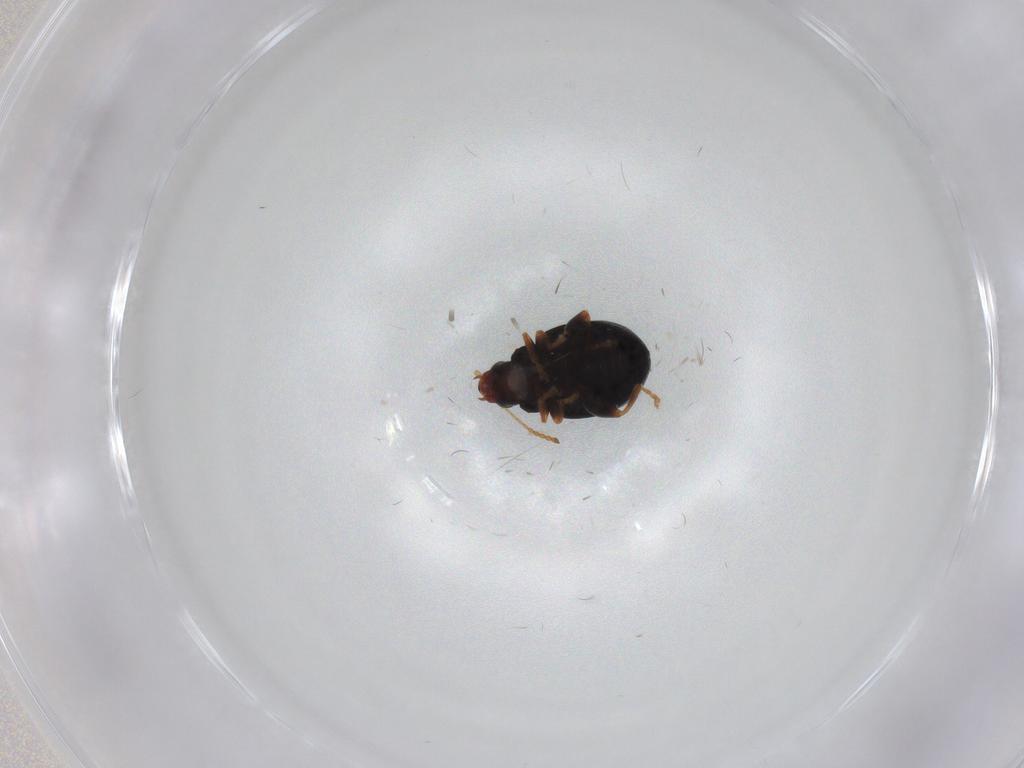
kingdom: Animalia
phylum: Arthropoda
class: Insecta
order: Coleoptera
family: Chrysomelidae
